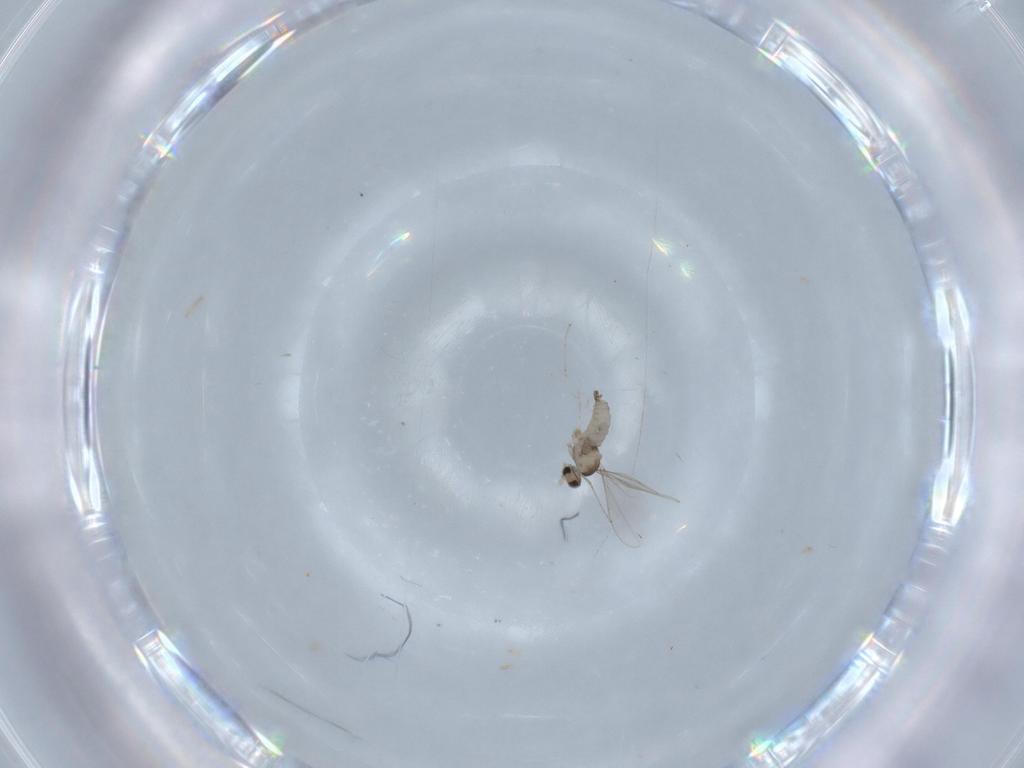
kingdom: Animalia
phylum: Arthropoda
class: Insecta
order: Diptera
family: Cecidomyiidae
